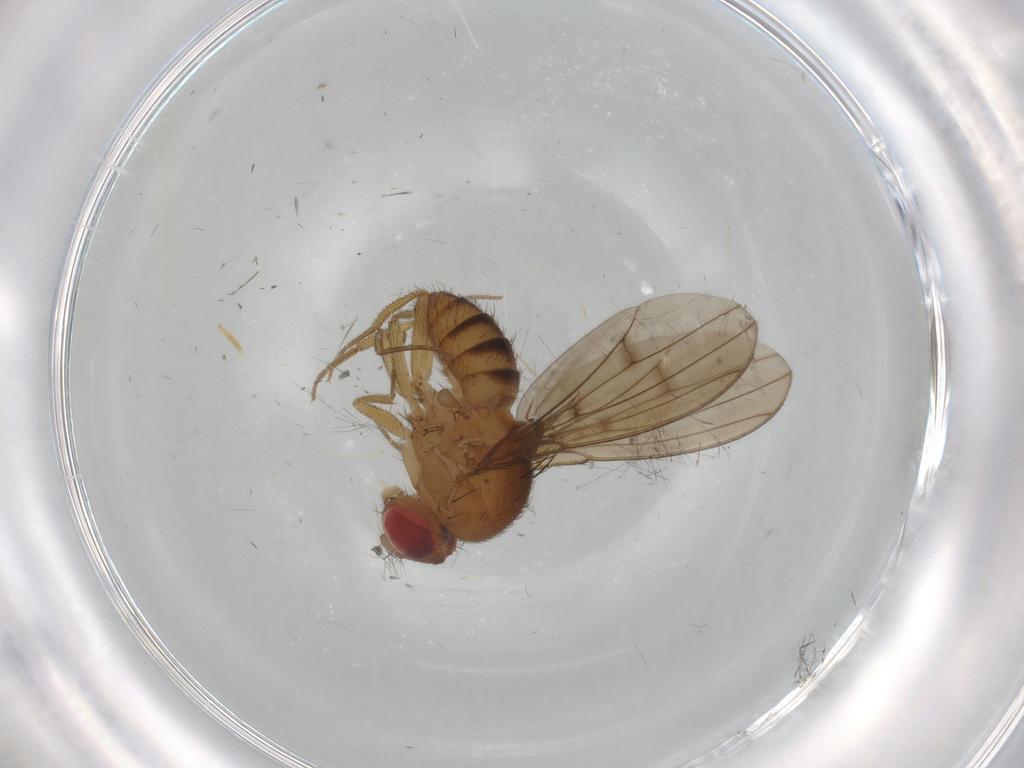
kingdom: Animalia
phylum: Arthropoda
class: Insecta
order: Diptera
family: Drosophilidae
